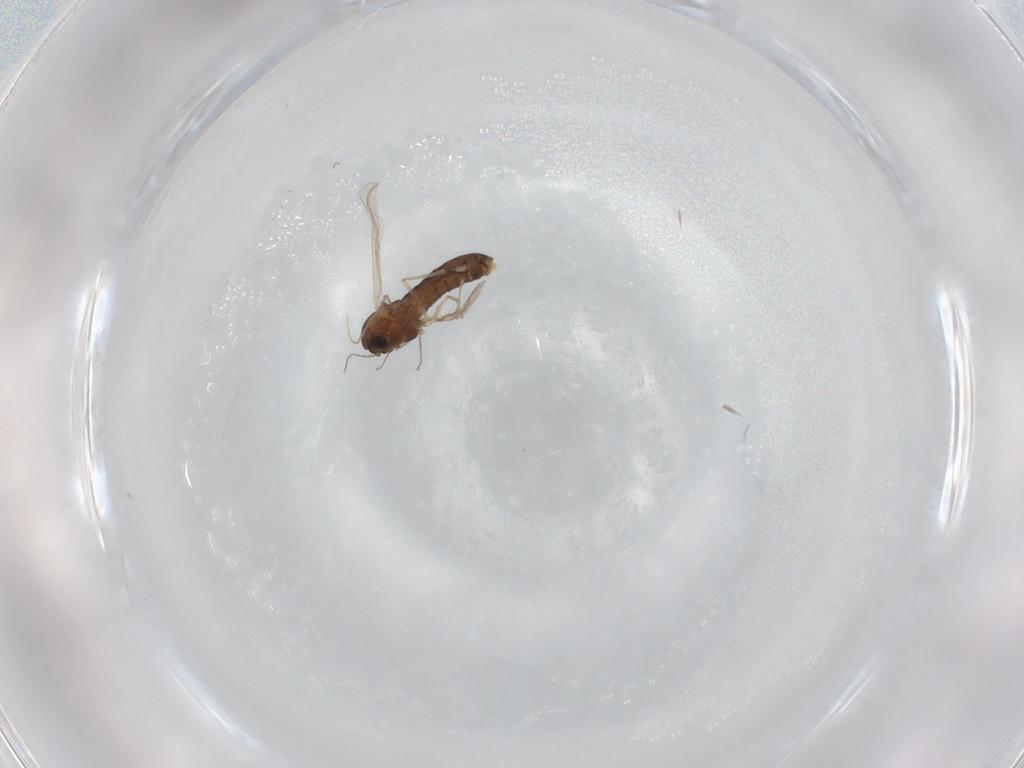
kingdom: Animalia
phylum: Arthropoda
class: Insecta
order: Diptera
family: Chironomidae
